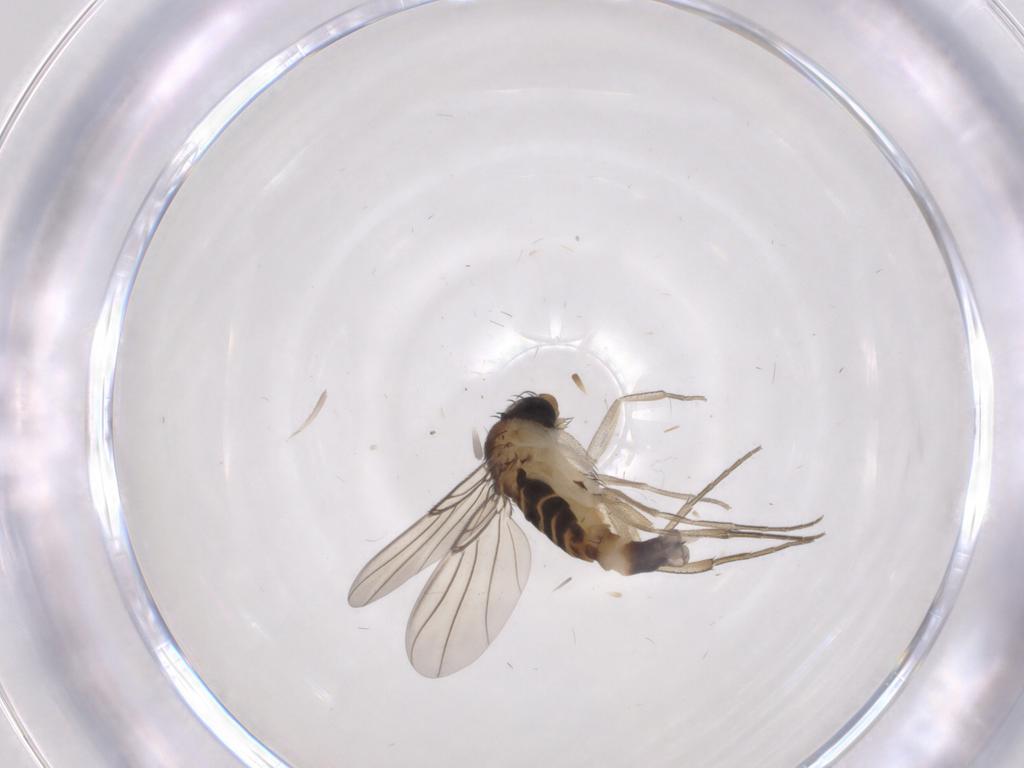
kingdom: Animalia
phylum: Arthropoda
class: Insecta
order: Diptera
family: Phoridae
